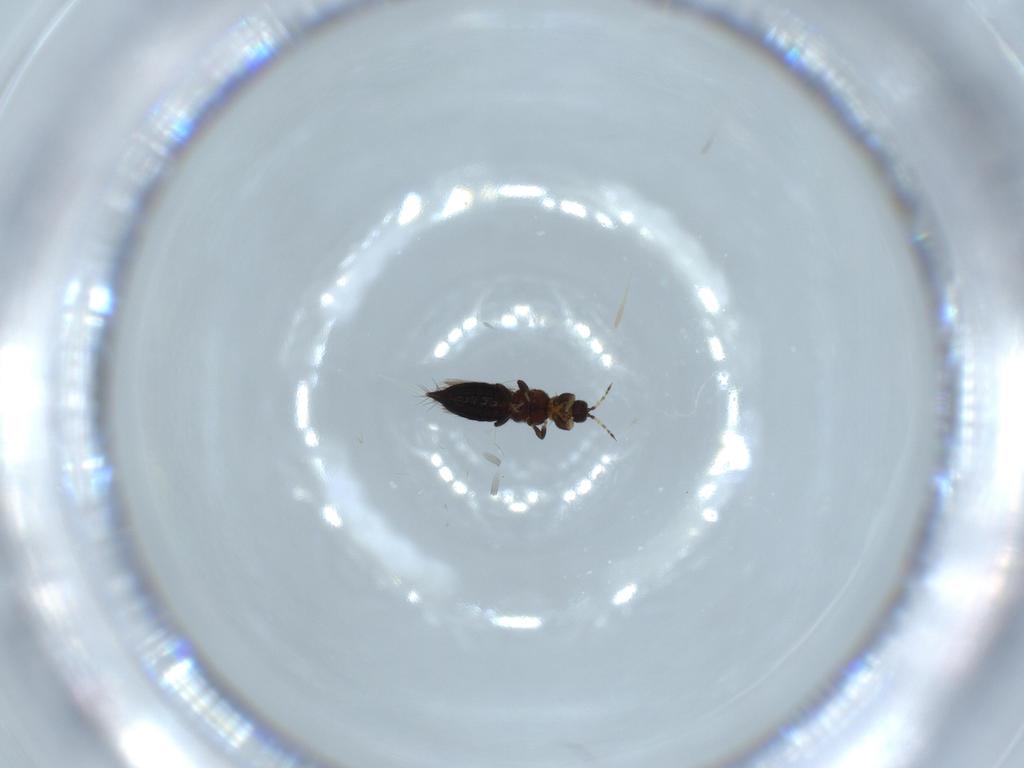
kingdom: Animalia
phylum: Arthropoda
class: Insecta
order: Thysanoptera
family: Thripidae
